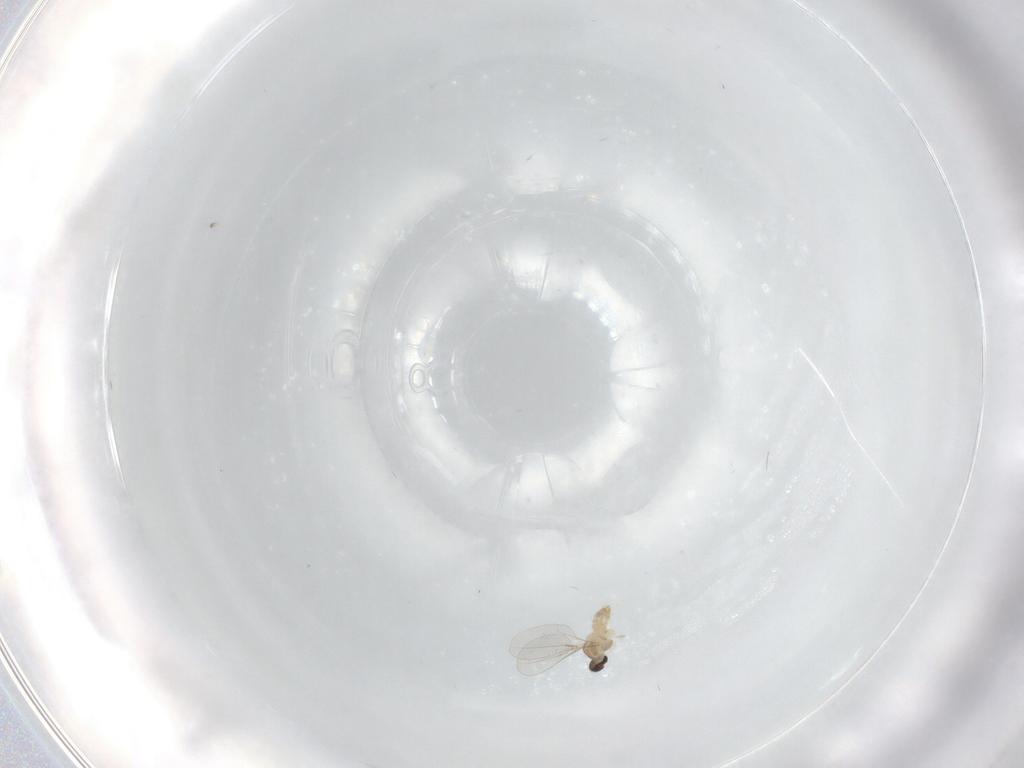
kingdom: Animalia
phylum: Arthropoda
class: Insecta
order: Diptera
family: Cecidomyiidae
